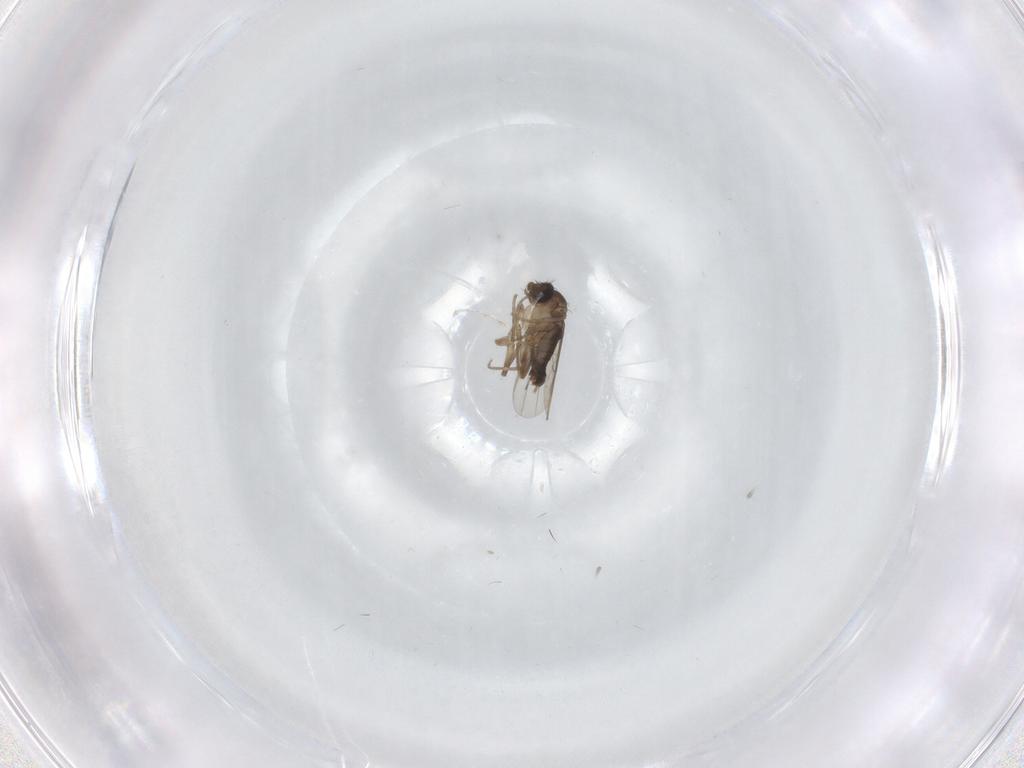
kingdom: Animalia
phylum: Arthropoda
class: Insecta
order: Diptera
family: Phoridae
